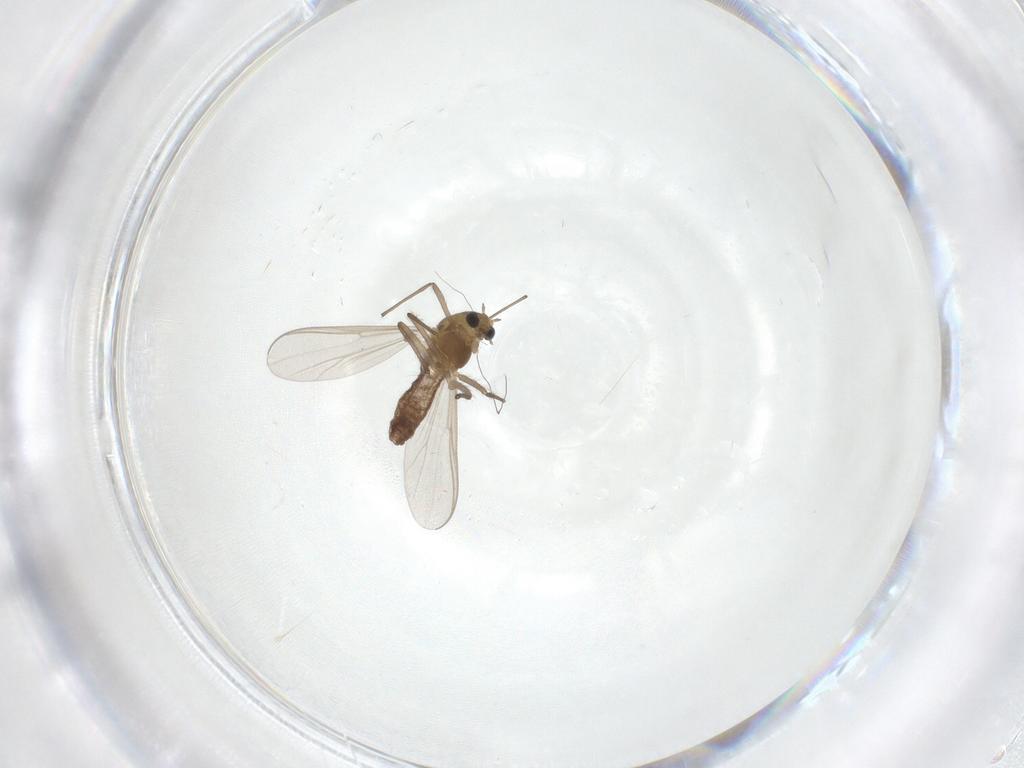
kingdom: Animalia
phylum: Arthropoda
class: Insecta
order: Diptera
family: Chironomidae
